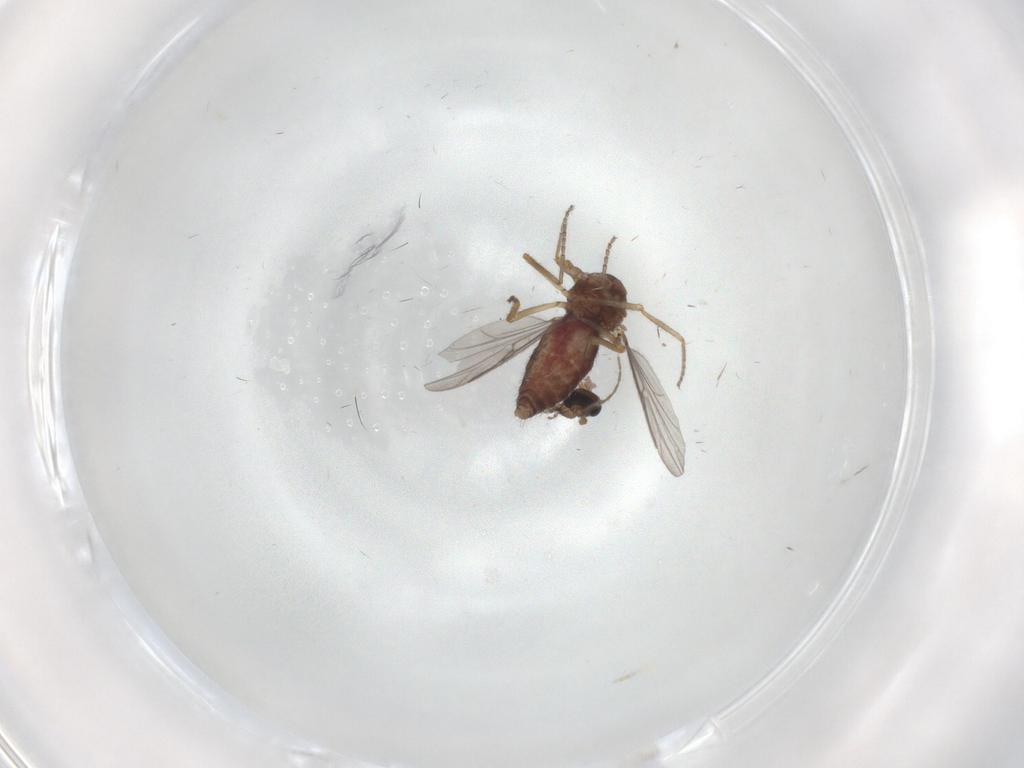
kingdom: Animalia
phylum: Arthropoda
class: Insecta
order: Diptera
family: Ceratopogonidae
